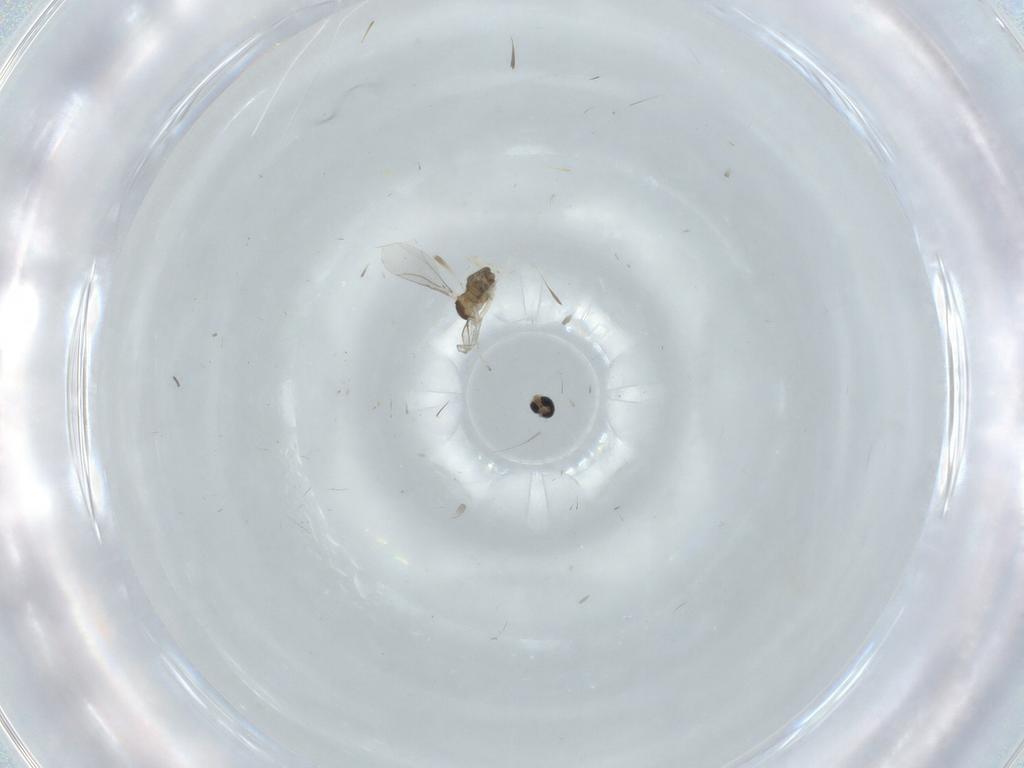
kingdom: Animalia
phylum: Arthropoda
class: Insecta
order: Diptera
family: Cecidomyiidae
